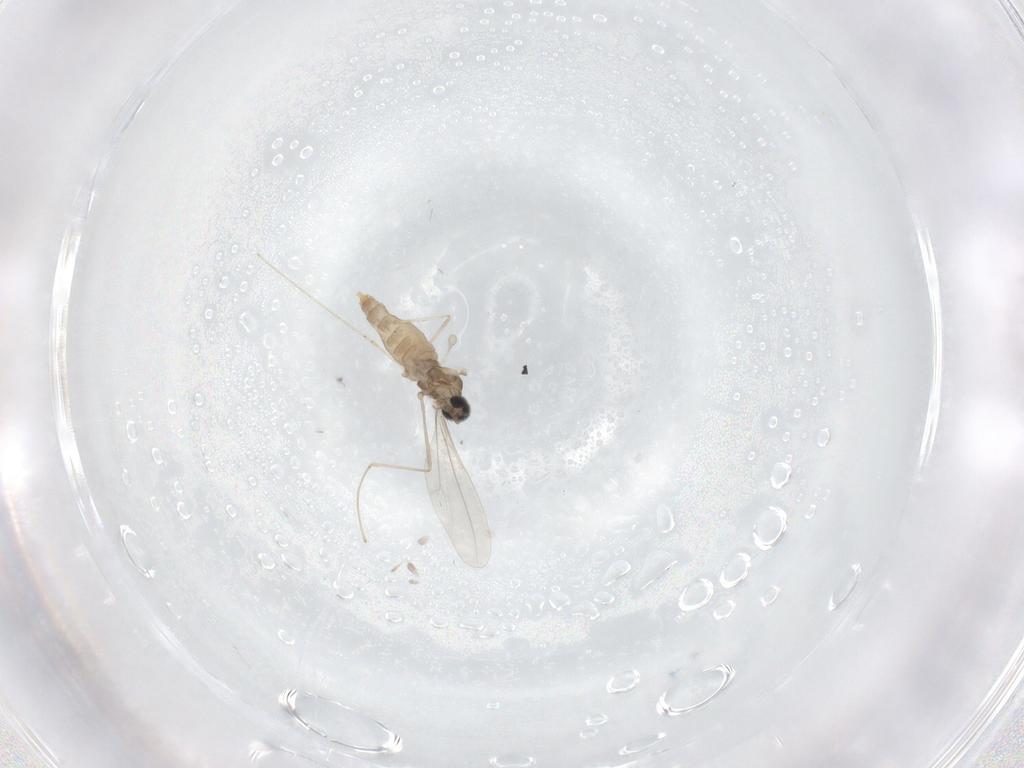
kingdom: Animalia
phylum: Arthropoda
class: Insecta
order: Diptera
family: Cecidomyiidae
